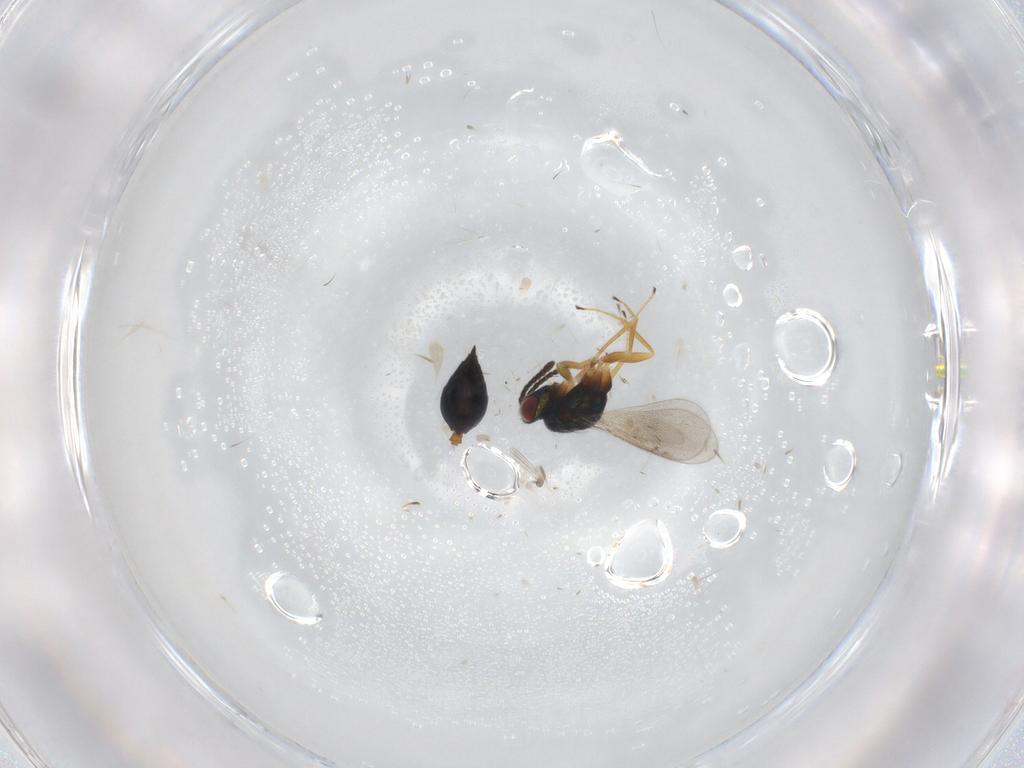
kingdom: Animalia
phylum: Arthropoda
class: Insecta
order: Hymenoptera
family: Tetracampidae
